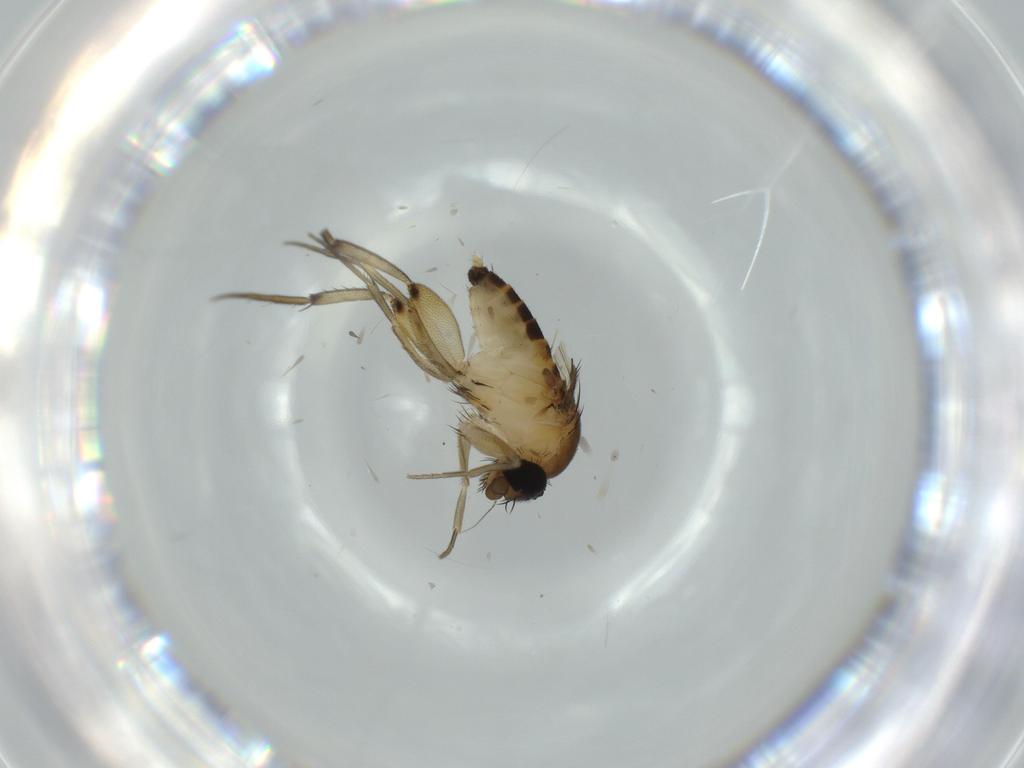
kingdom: Animalia
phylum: Arthropoda
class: Insecta
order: Diptera
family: Phoridae
